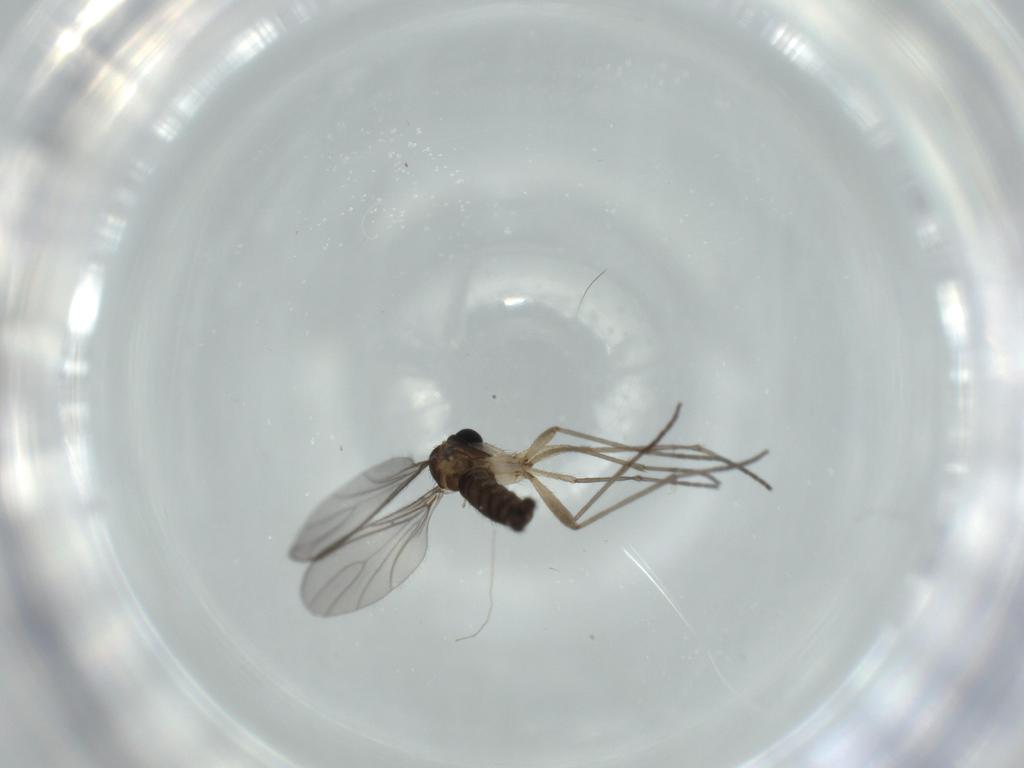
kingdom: Animalia
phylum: Arthropoda
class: Insecta
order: Diptera
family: Sciaridae
